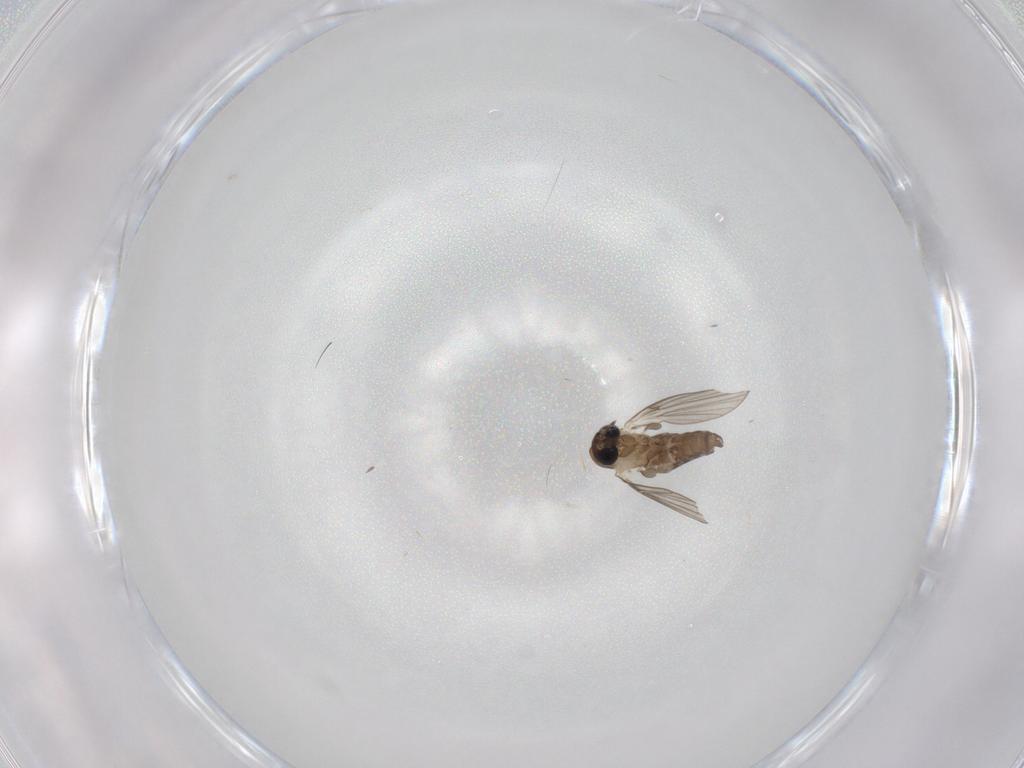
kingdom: Animalia
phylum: Arthropoda
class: Insecta
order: Diptera
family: Cecidomyiidae
